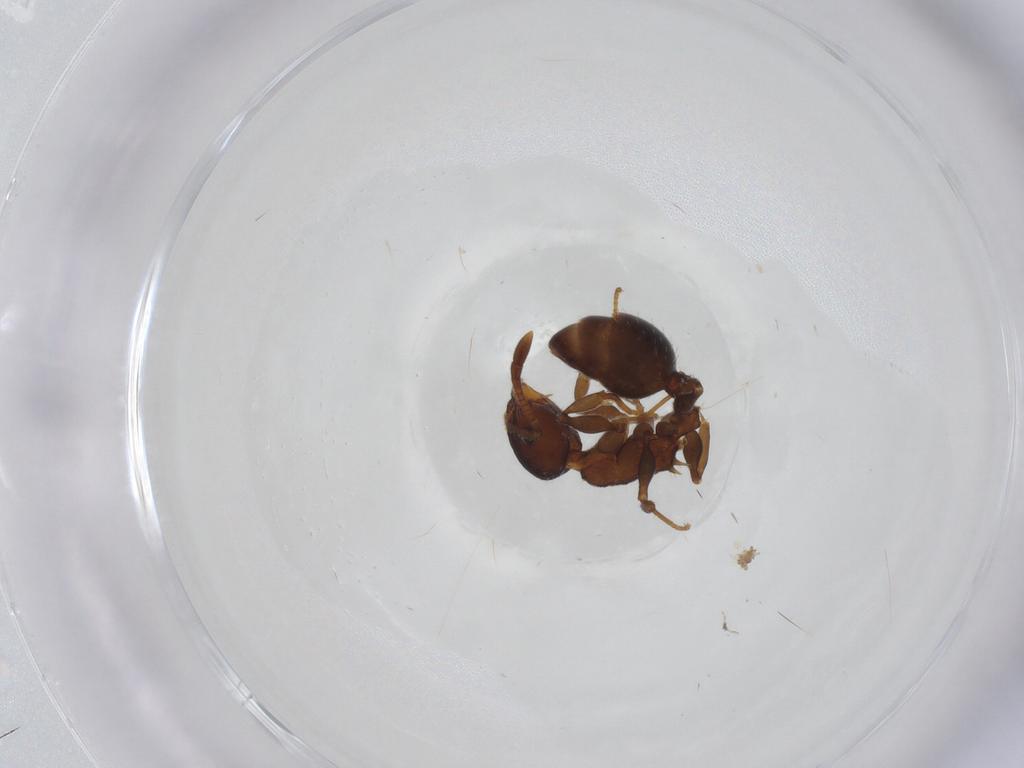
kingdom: Animalia
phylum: Arthropoda
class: Insecta
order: Hymenoptera
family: Formicidae
